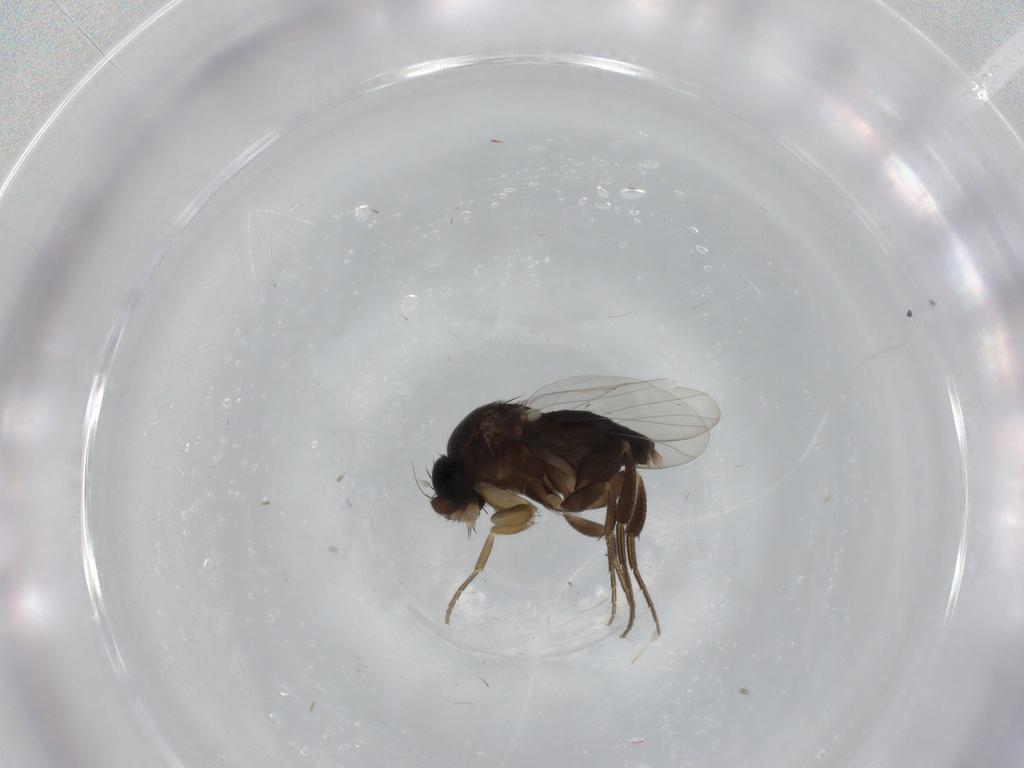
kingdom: Animalia
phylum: Arthropoda
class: Insecta
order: Diptera
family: Phoridae
